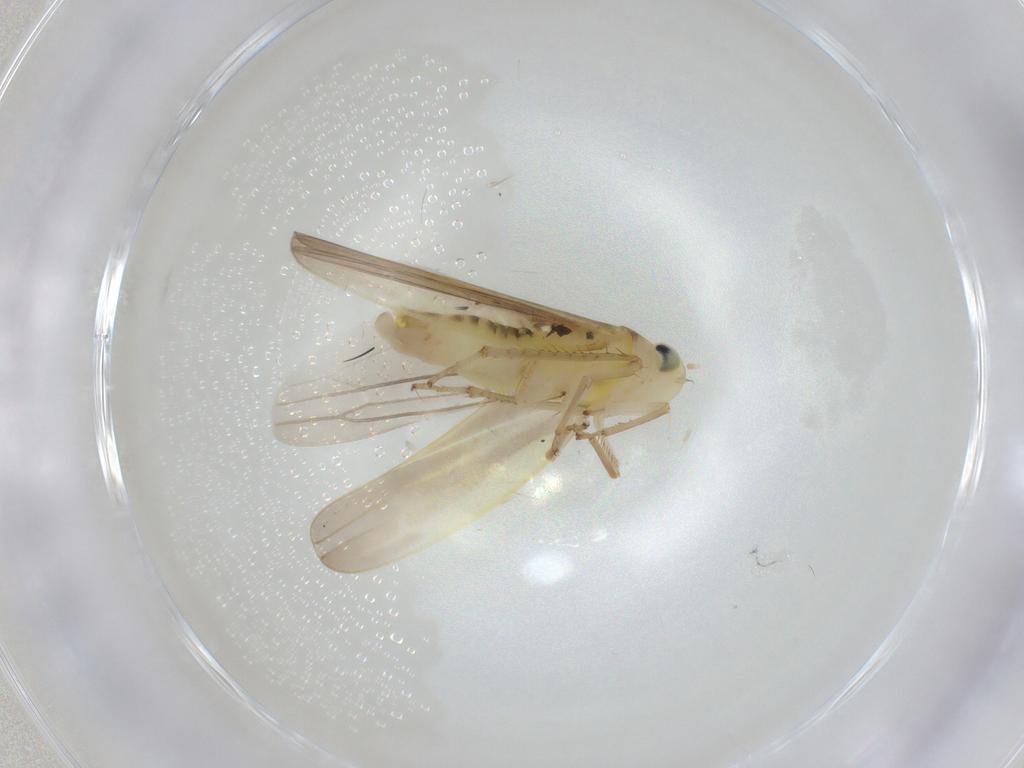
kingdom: Animalia
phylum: Arthropoda
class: Insecta
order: Hemiptera
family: Cicadellidae
